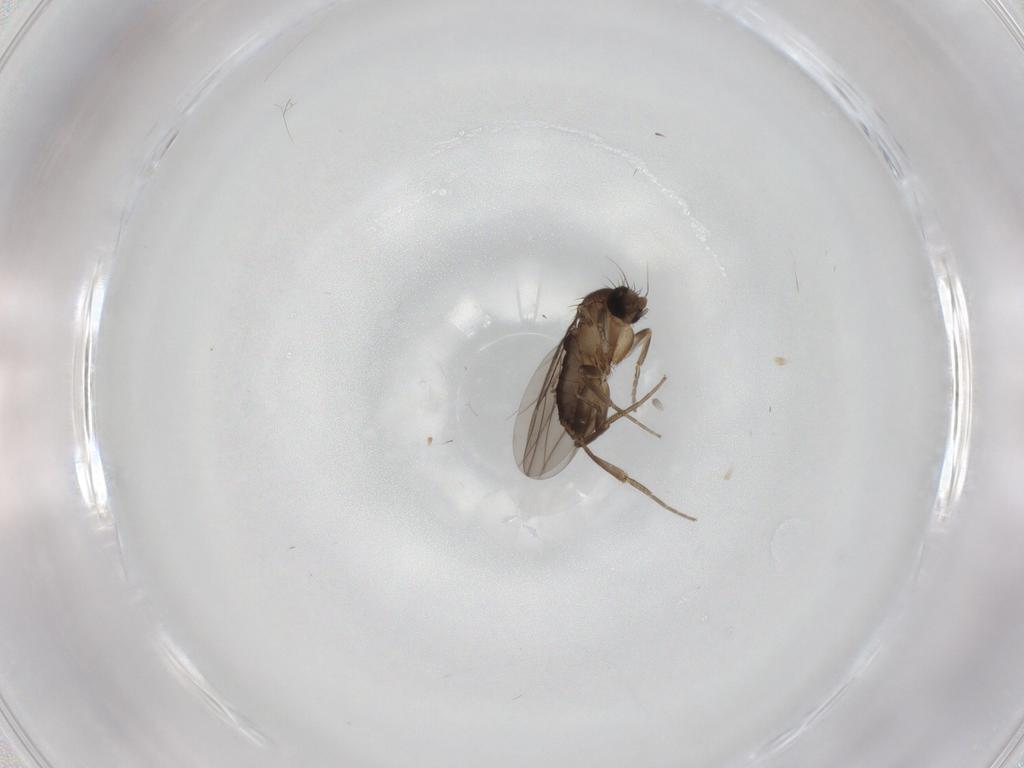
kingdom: Animalia
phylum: Arthropoda
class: Insecta
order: Diptera
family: Phoridae
